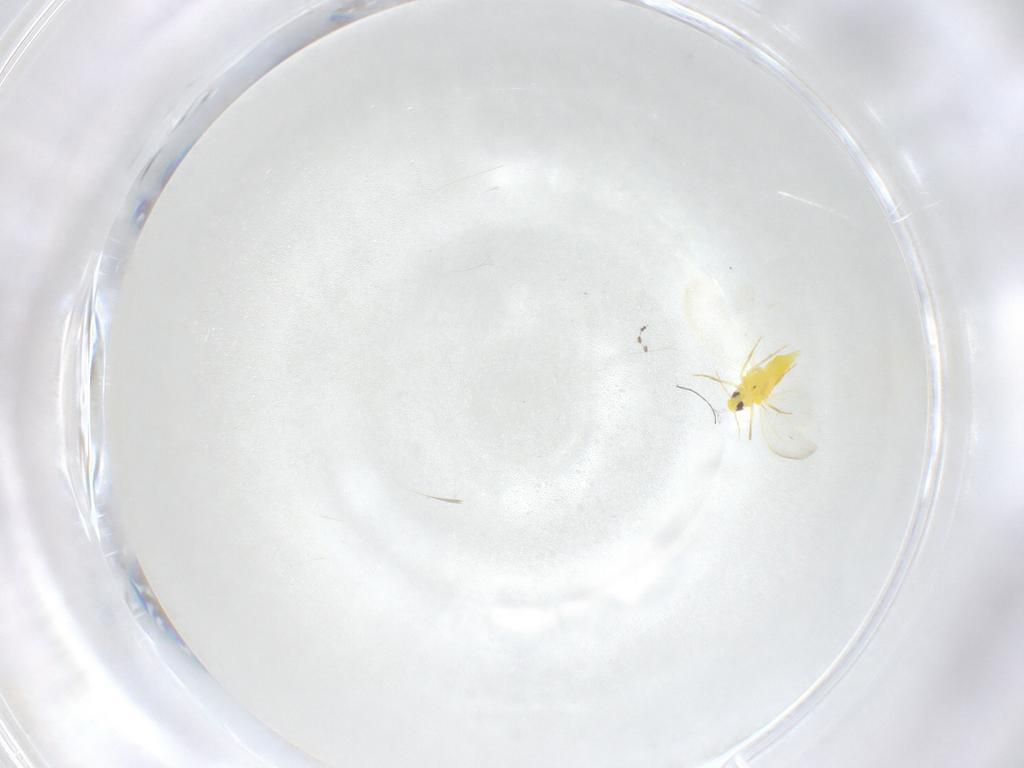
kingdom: Animalia
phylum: Arthropoda
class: Insecta
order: Hemiptera
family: Aleyrodidae
